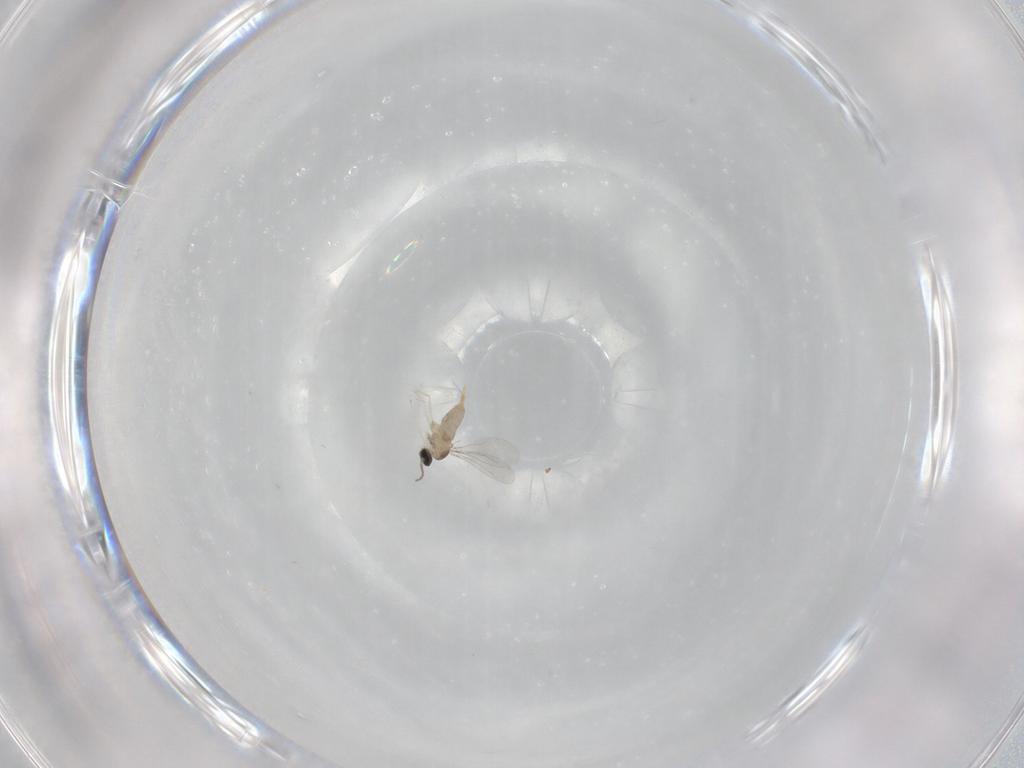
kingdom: Animalia
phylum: Arthropoda
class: Insecta
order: Diptera
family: Cecidomyiidae
